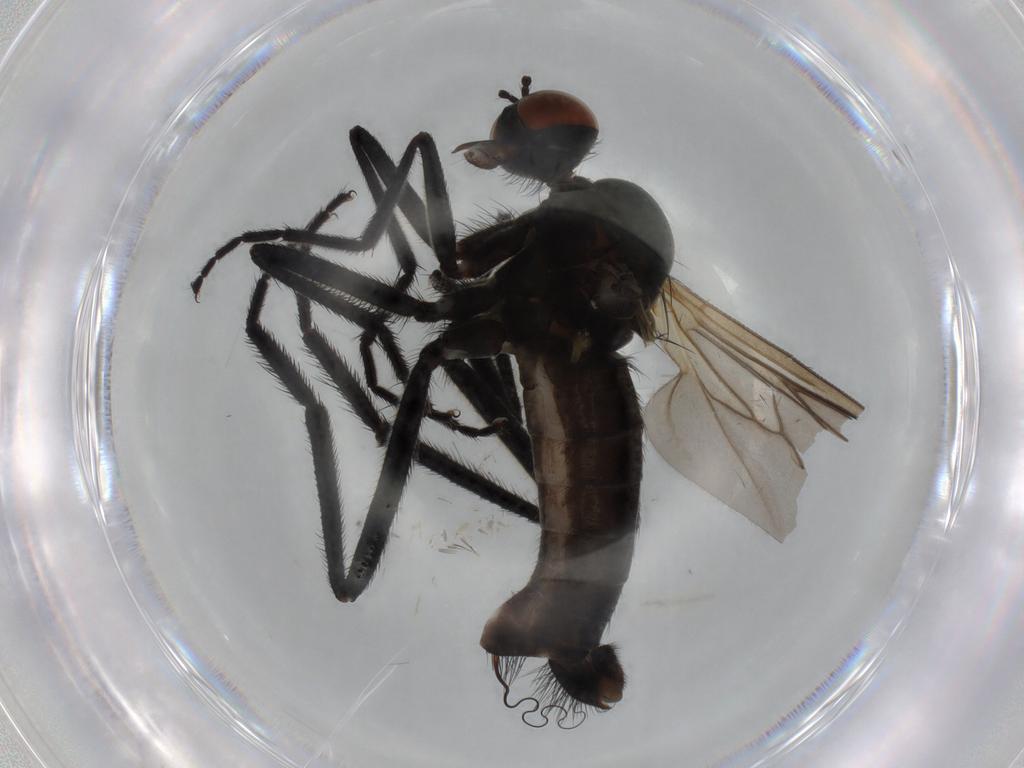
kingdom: Animalia
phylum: Arthropoda
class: Insecta
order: Diptera
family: Empididae
